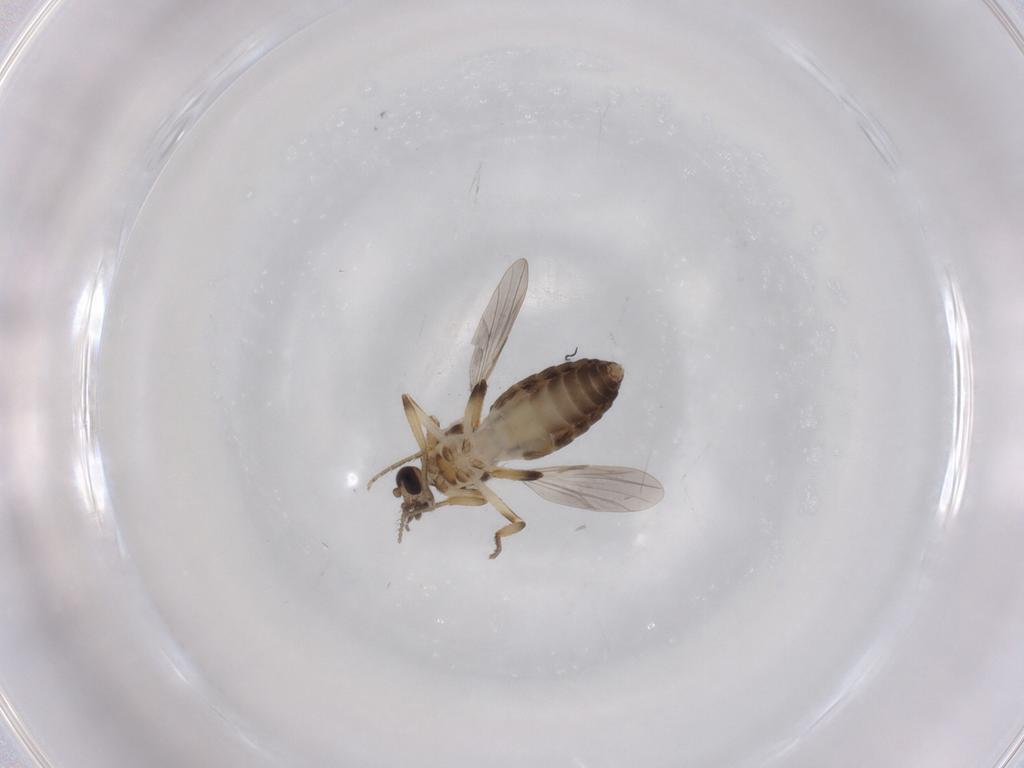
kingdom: Animalia
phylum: Arthropoda
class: Insecta
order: Diptera
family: Ceratopogonidae
